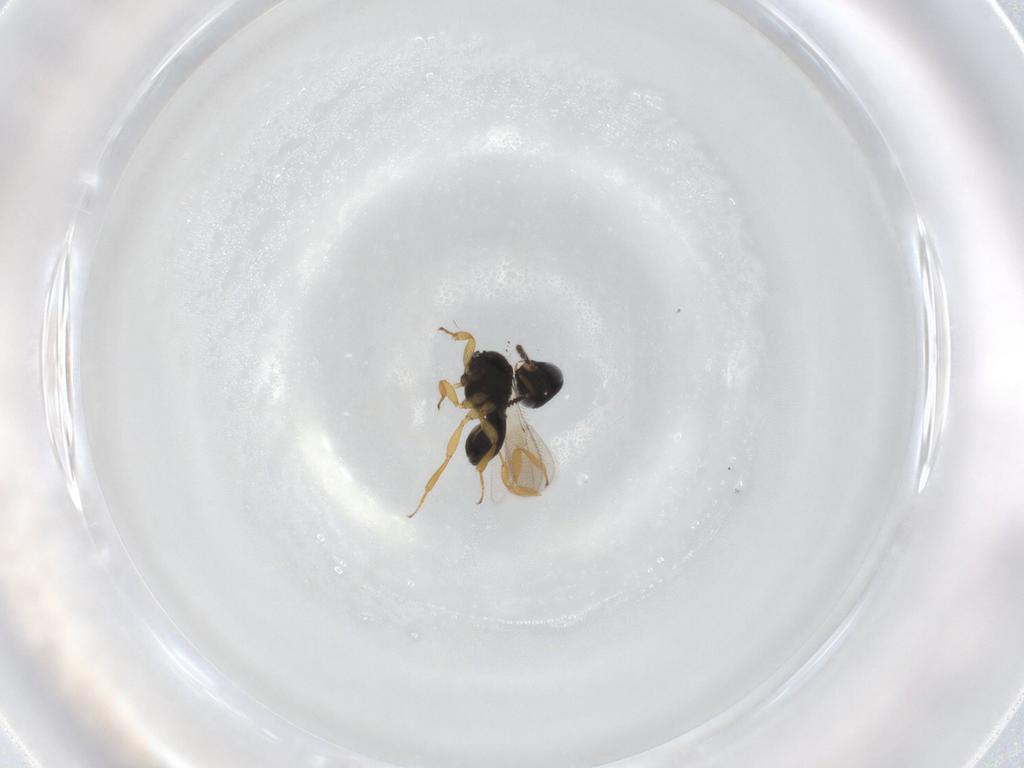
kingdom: Animalia
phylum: Arthropoda
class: Insecta
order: Hymenoptera
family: Scelionidae
